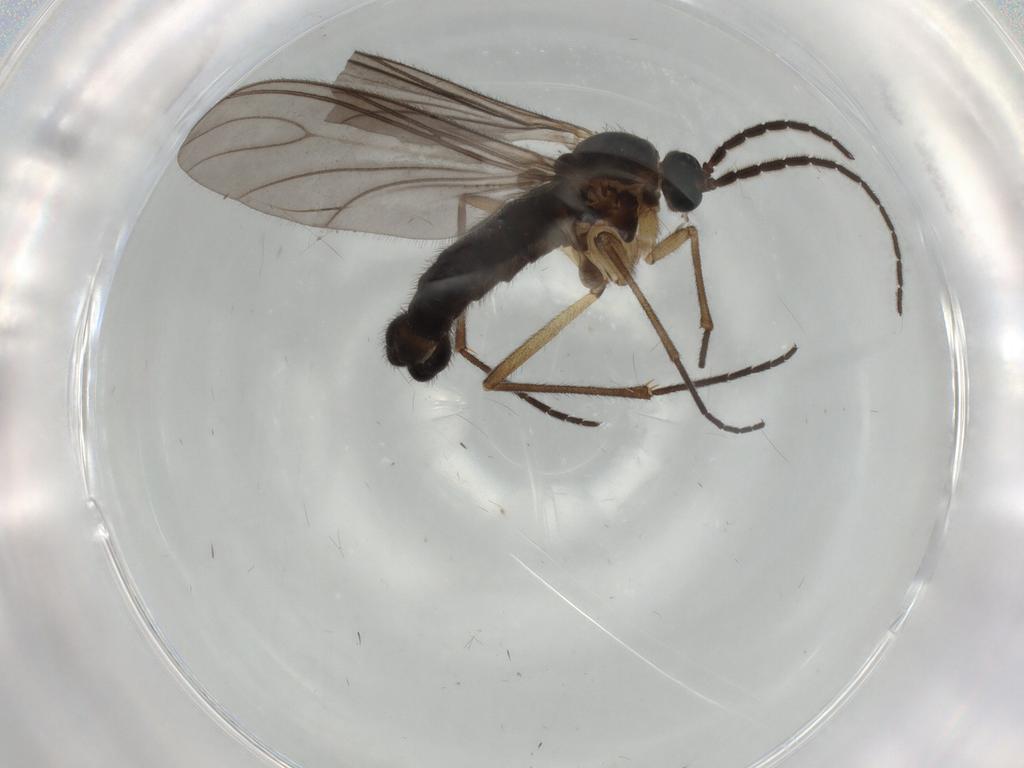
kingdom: Animalia
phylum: Arthropoda
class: Insecta
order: Diptera
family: Sciaridae
